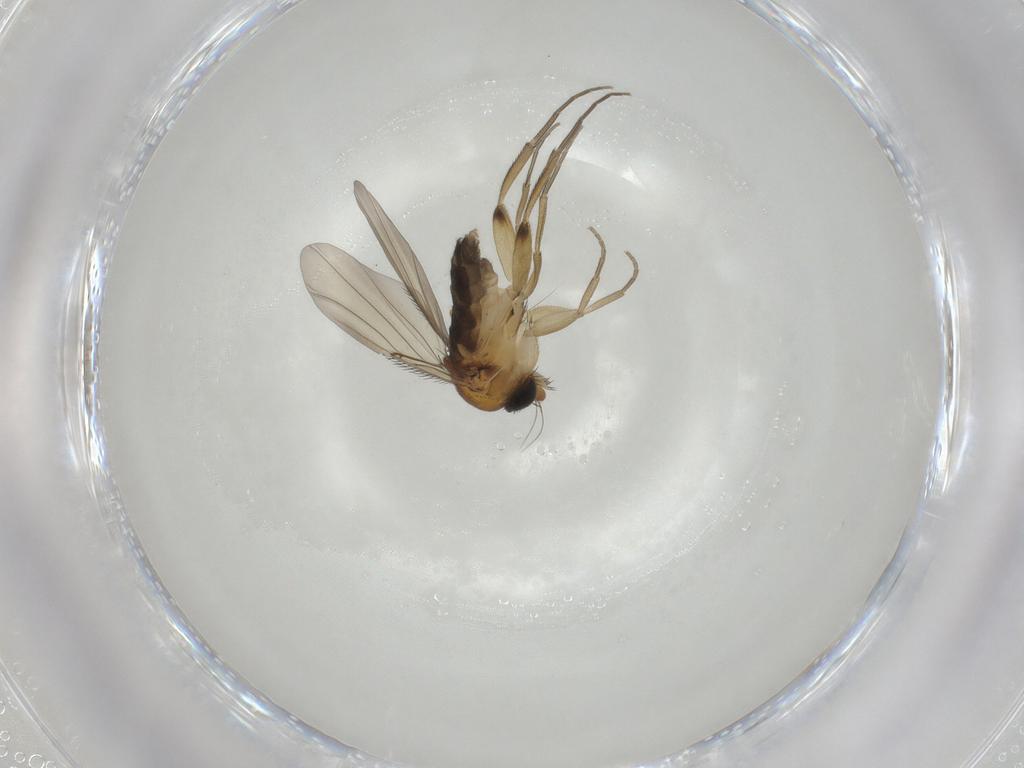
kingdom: Animalia
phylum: Arthropoda
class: Insecta
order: Diptera
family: Phoridae
